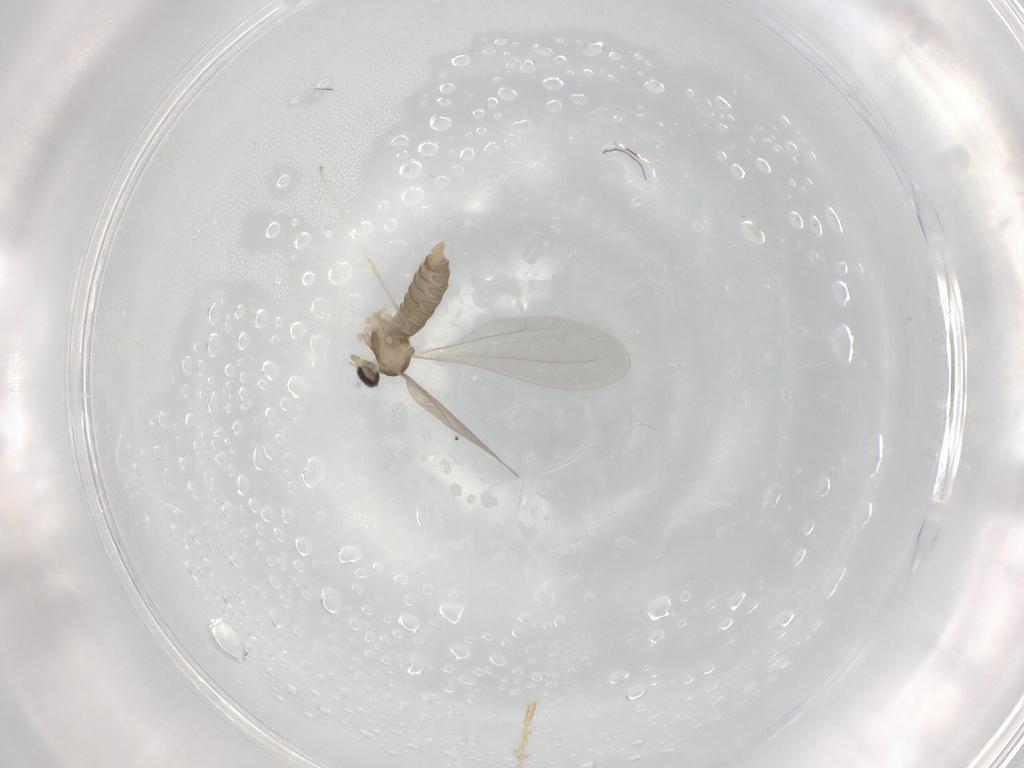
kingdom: Animalia
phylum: Arthropoda
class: Insecta
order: Diptera
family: Cecidomyiidae
